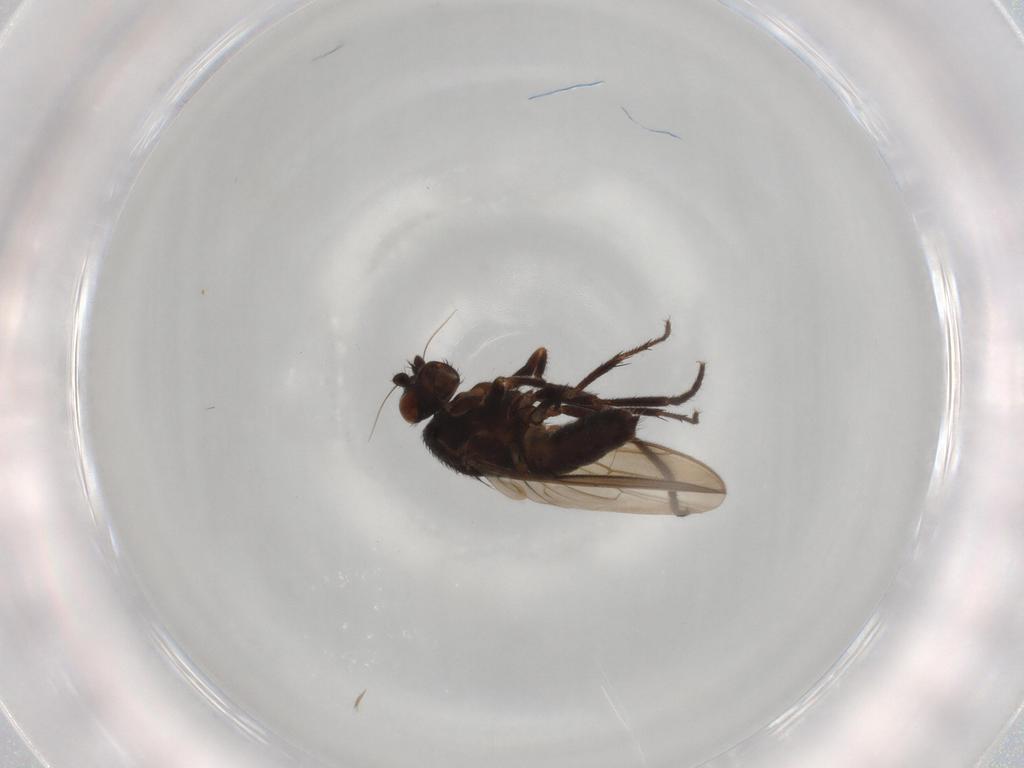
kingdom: Animalia
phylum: Arthropoda
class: Insecta
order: Diptera
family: Sphaeroceridae
